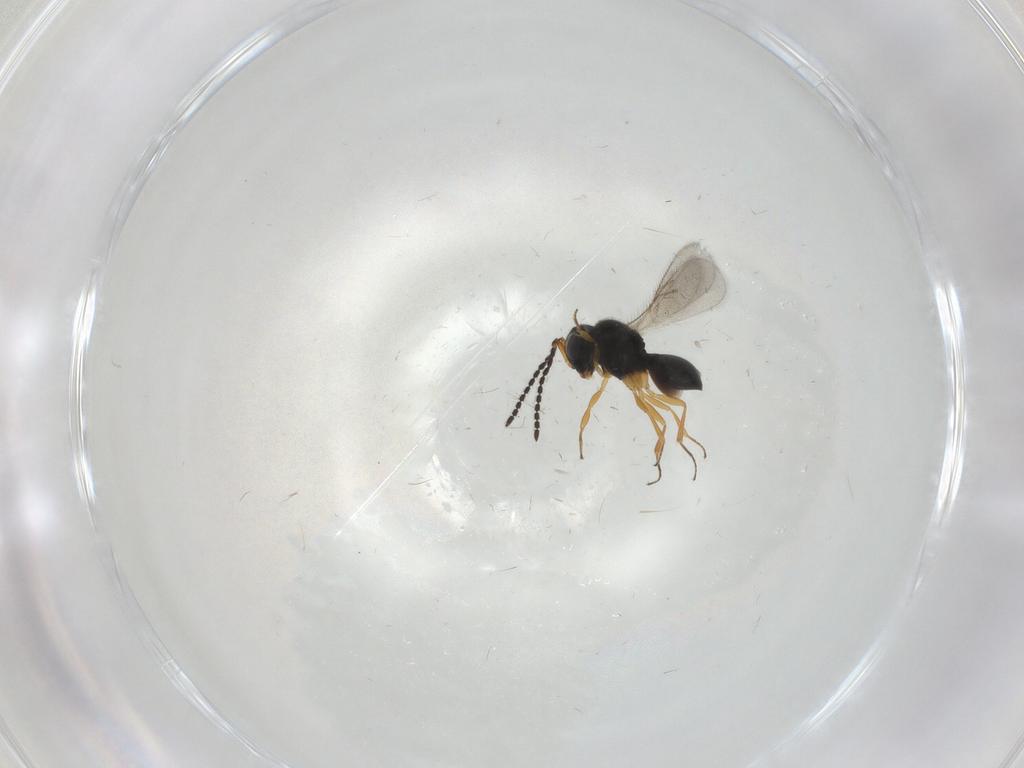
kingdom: Animalia
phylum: Arthropoda
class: Insecta
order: Hymenoptera
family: Scelionidae
